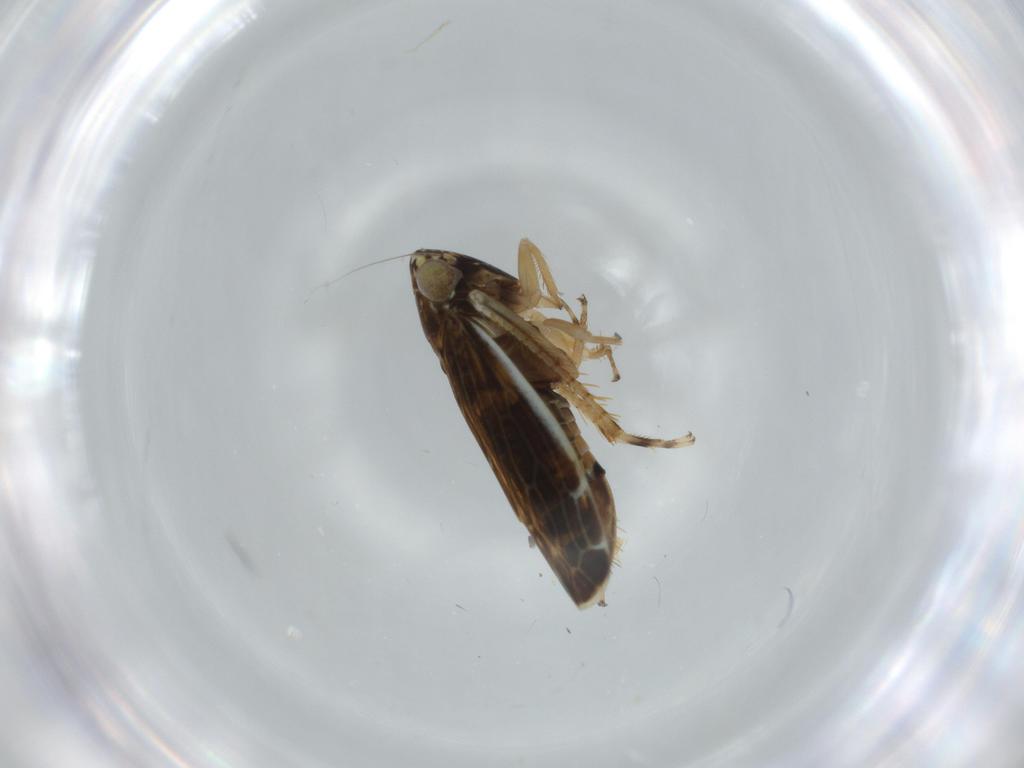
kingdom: Animalia
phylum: Arthropoda
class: Insecta
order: Hemiptera
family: Cicadellidae
